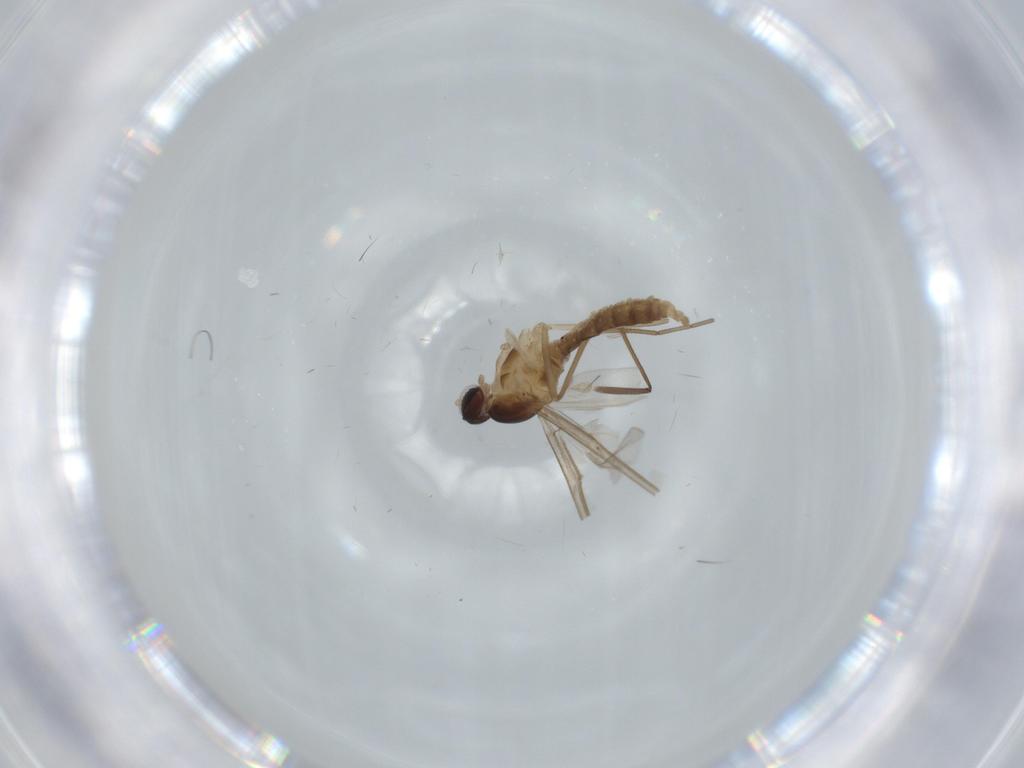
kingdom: Animalia
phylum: Arthropoda
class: Insecta
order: Diptera
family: Cecidomyiidae
